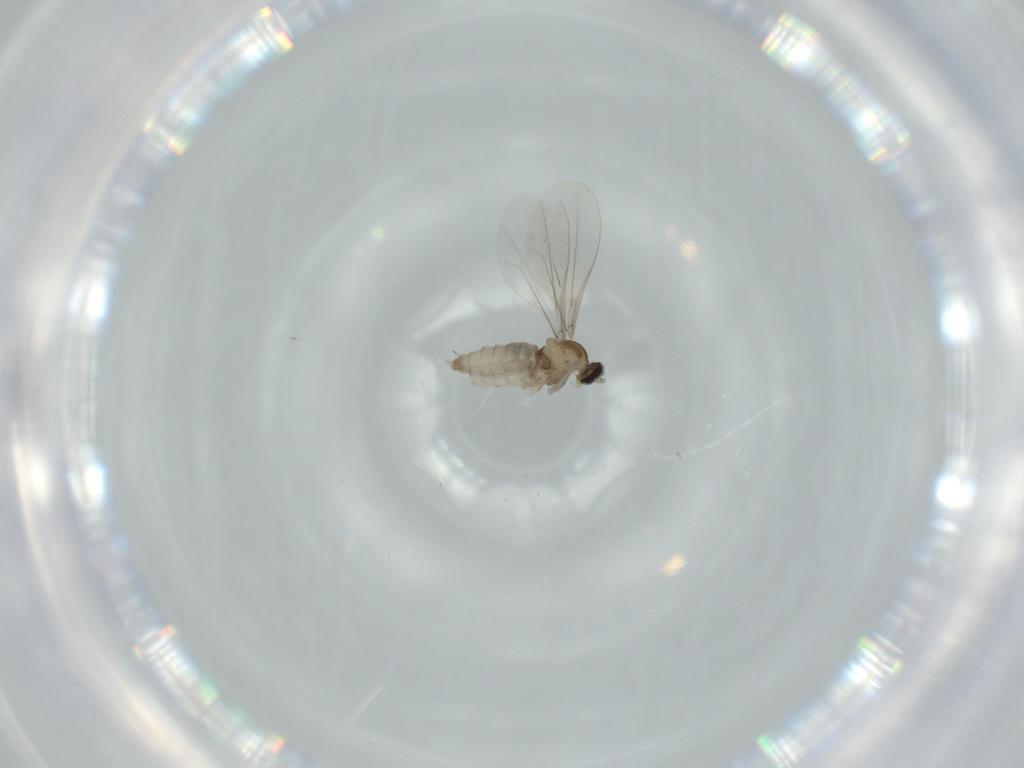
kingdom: Animalia
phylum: Arthropoda
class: Insecta
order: Diptera
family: Cecidomyiidae
